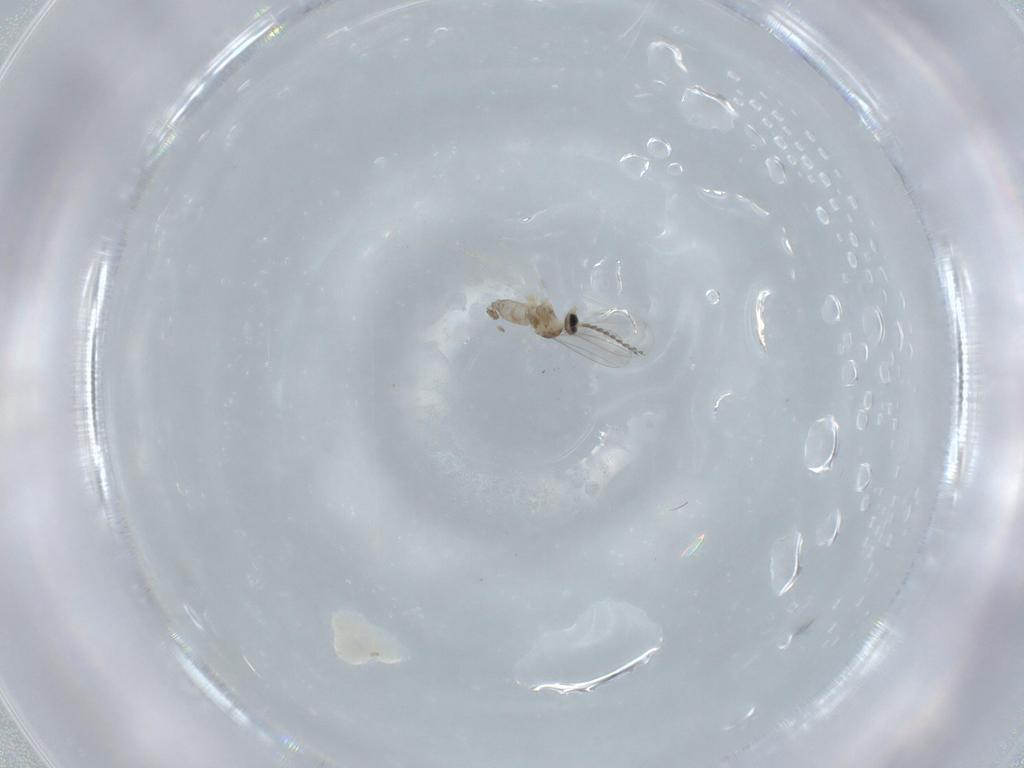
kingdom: Animalia
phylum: Arthropoda
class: Insecta
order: Diptera
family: Cecidomyiidae
